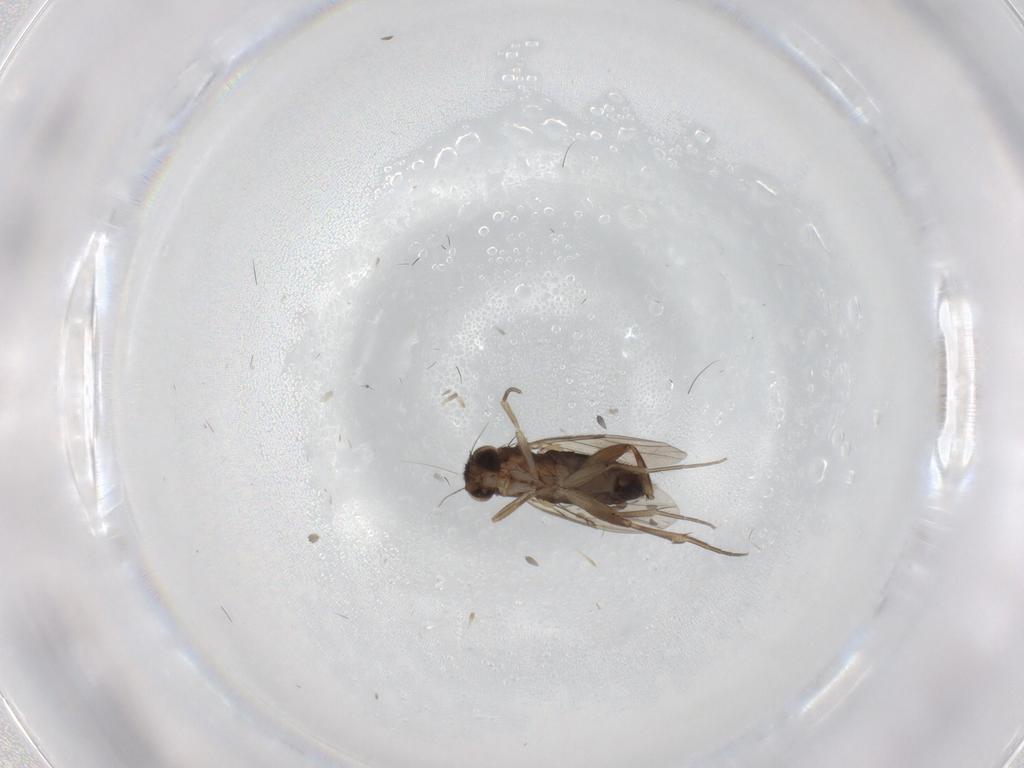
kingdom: Animalia
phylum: Arthropoda
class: Insecta
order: Diptera
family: Phoridae
